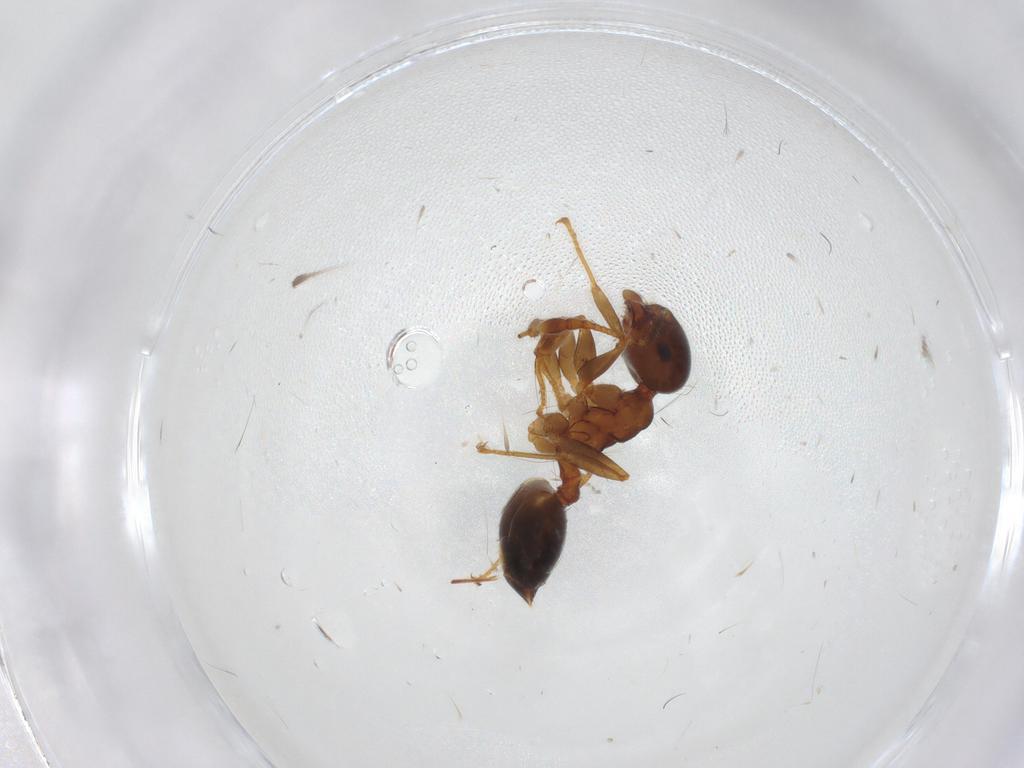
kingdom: Animalia
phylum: Arthropoda
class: Insecta
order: Hymenoptera
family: Formicidae
